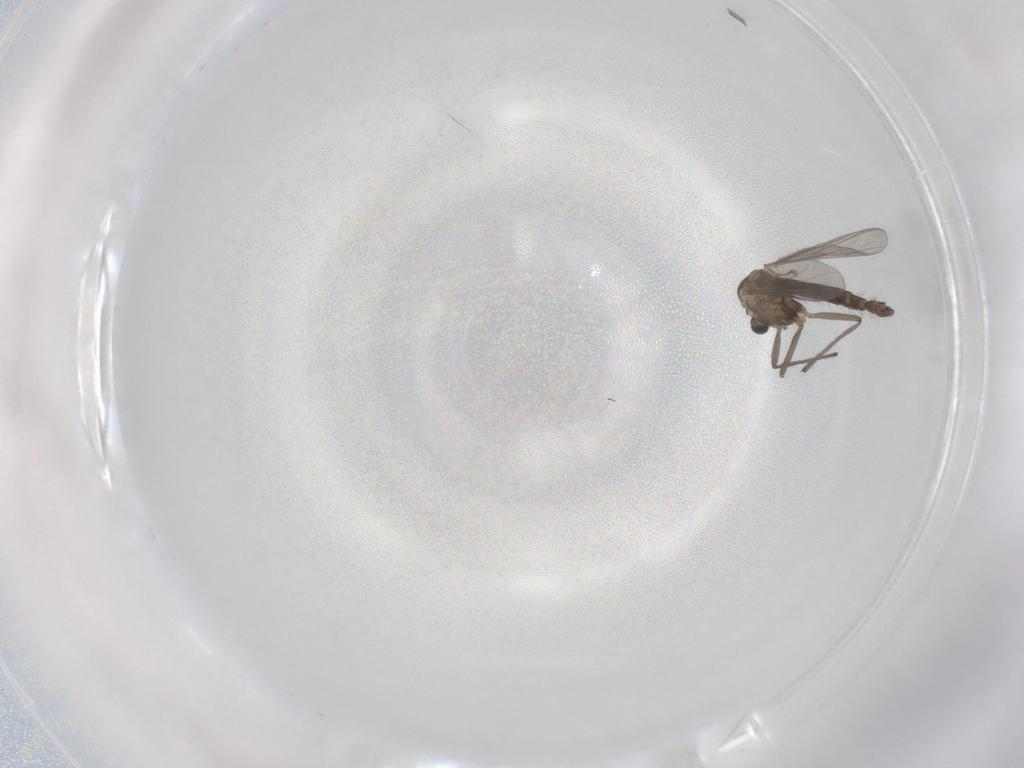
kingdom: Animalia
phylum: Arthropoda
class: Insecta
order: Diptera
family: Chironomidae
